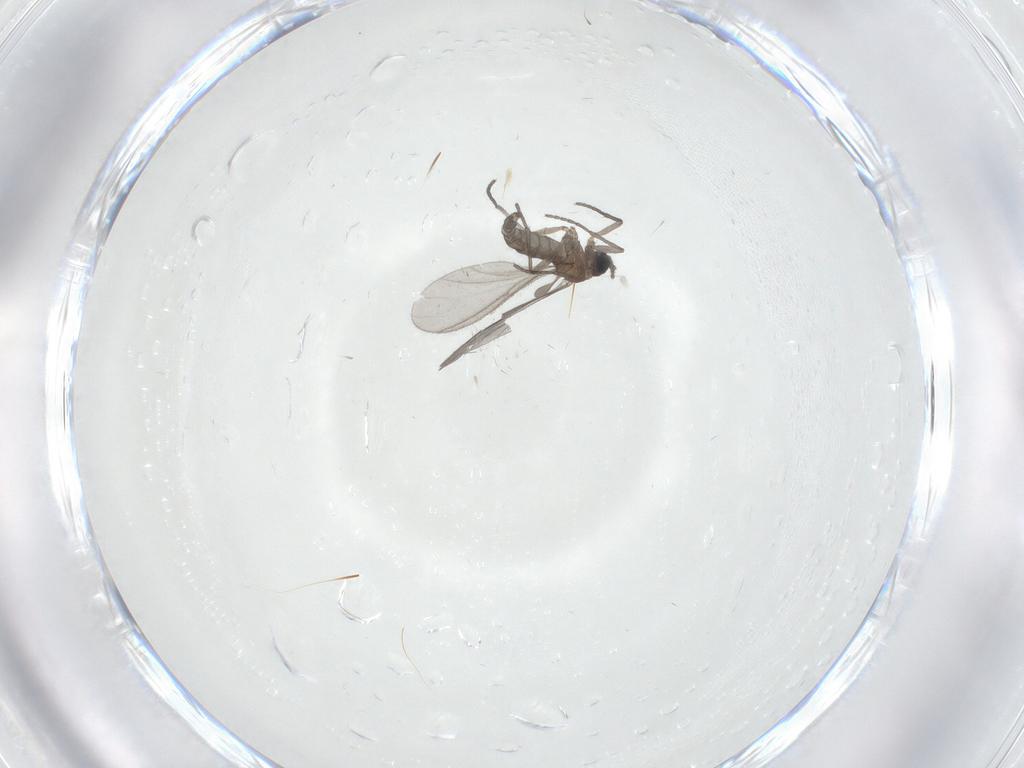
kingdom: Animalia
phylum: Arthropoda
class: Insecta
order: Diptera
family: Sciaridae
